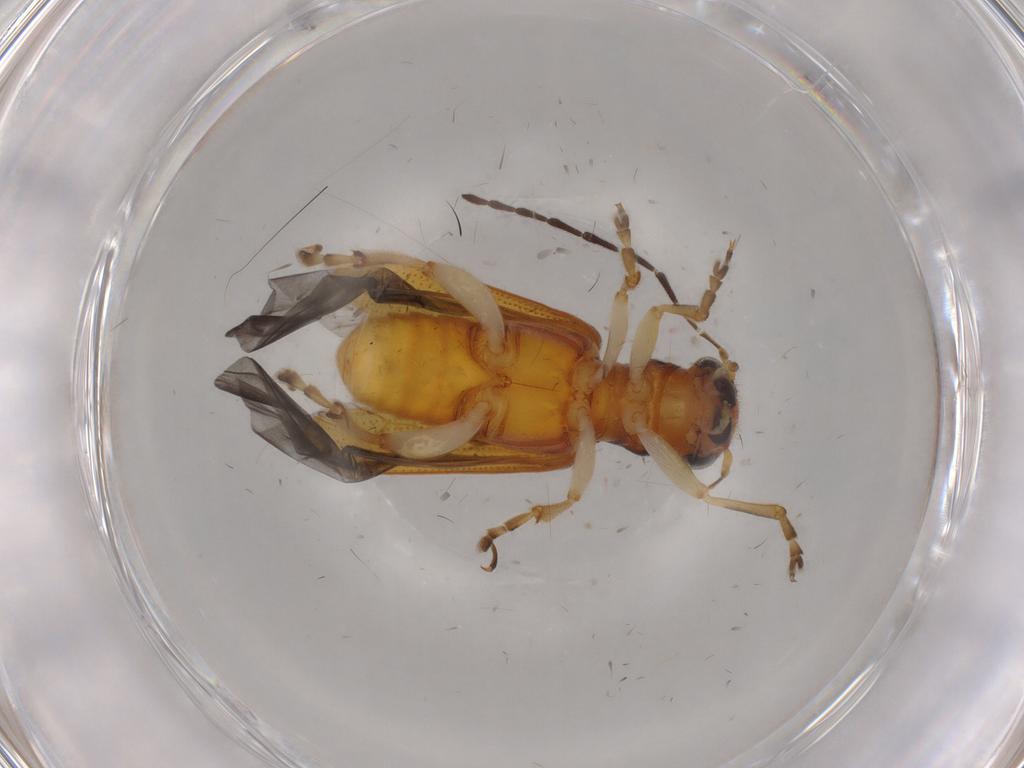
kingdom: Animalia
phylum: Arthropoda
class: Insecta
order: Coleoptera
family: Chrysomelidae
